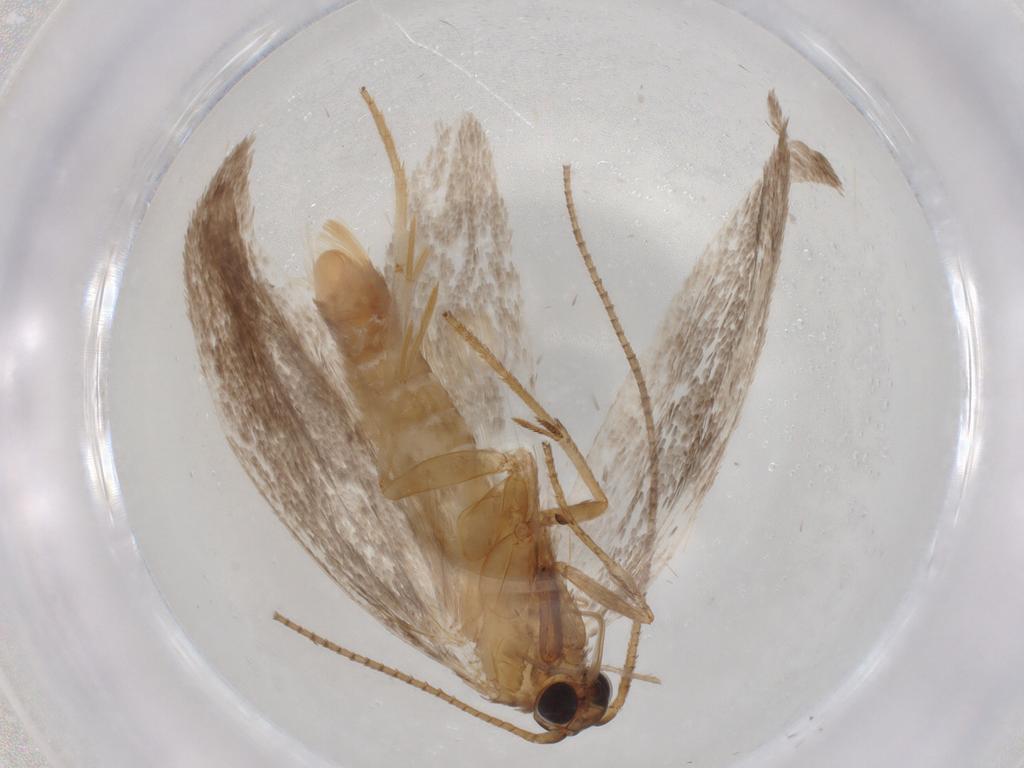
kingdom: Animalia
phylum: Arthropoda
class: Insecta
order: Lepidoptera
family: Roeslerstammiidae
